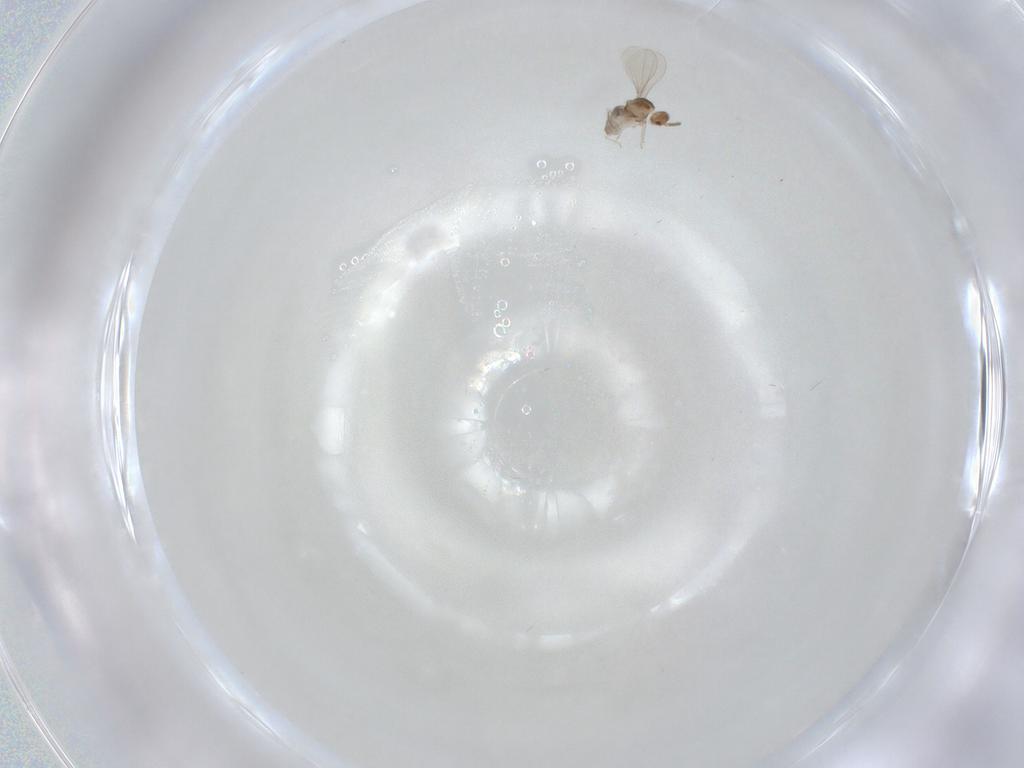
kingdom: Animalia
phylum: Arthropoda
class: Insecta
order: Diptera
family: Cecidomyiidae
